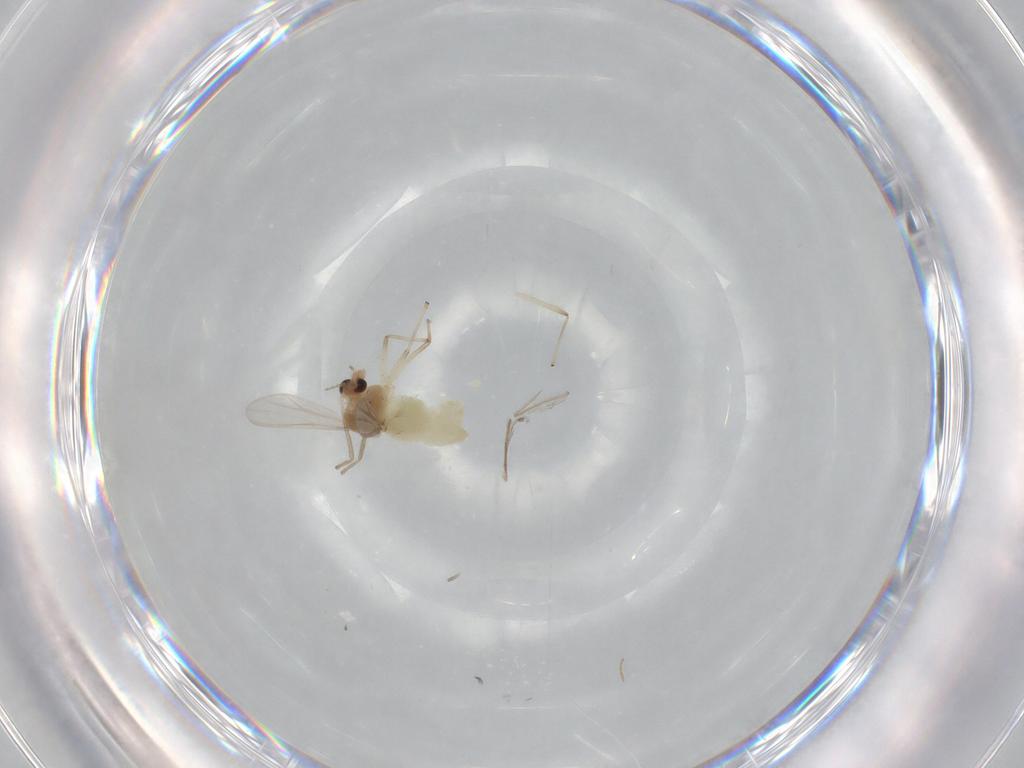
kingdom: Animalia
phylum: Arthropoda
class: Insecta
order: Diptera
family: Chironomidae
